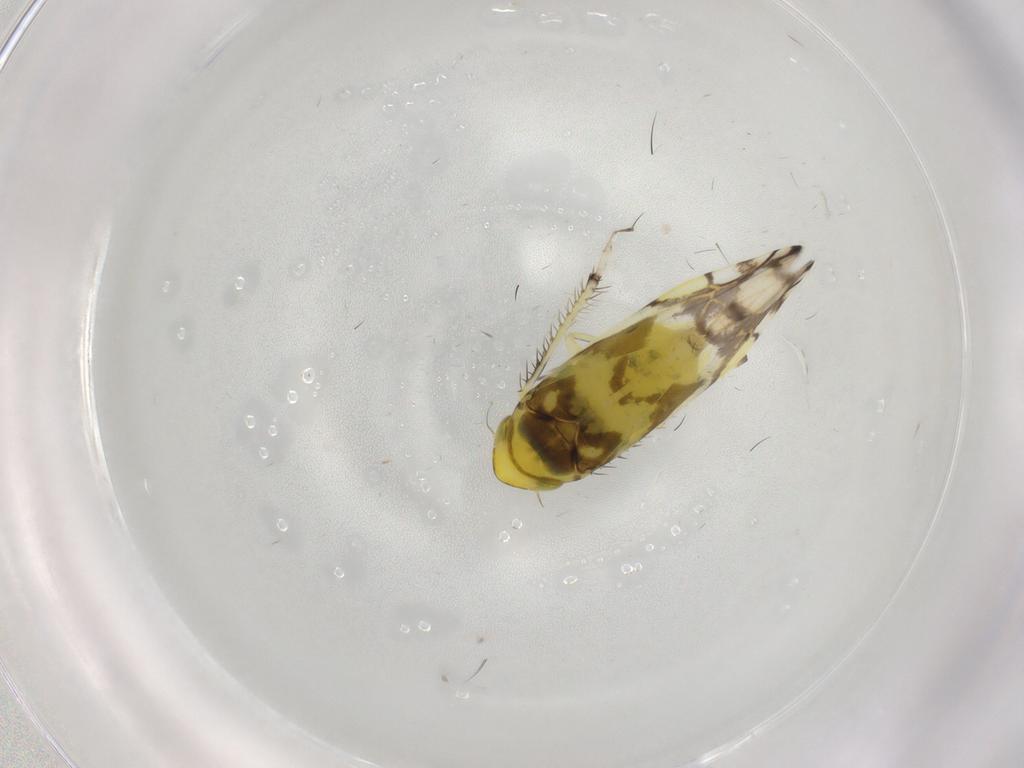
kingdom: Animalia
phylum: Arthropoda
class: Insecta
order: Hemiptera
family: Cicadellidae
